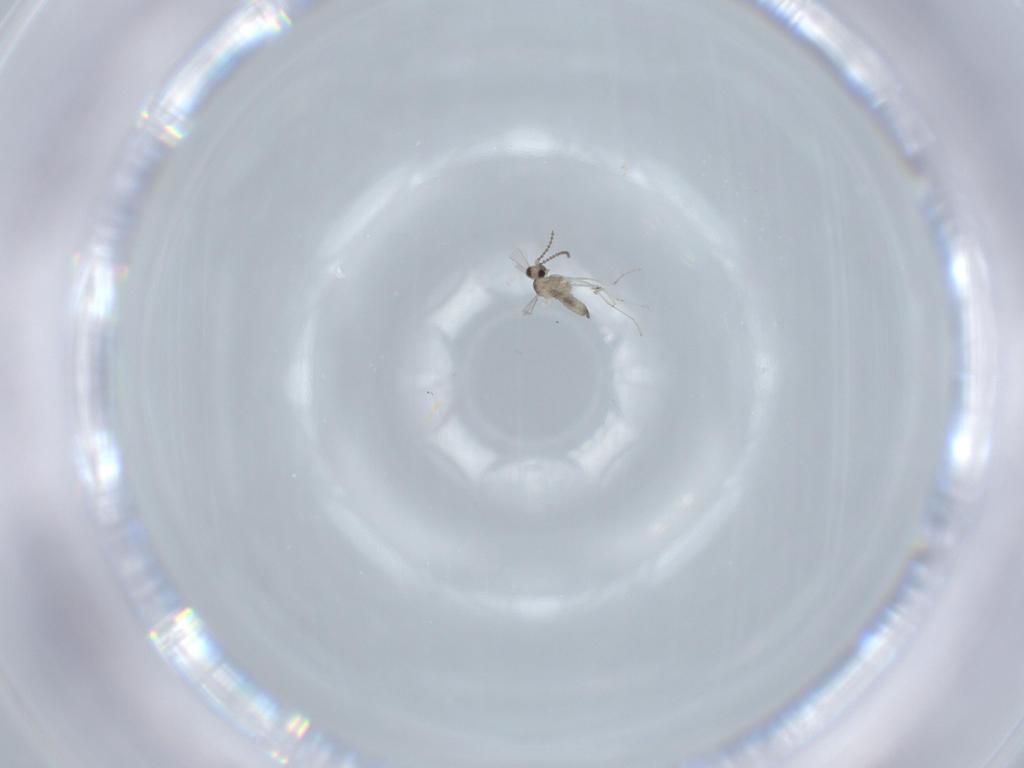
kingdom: Animalia
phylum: Arthropoda
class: Insecta
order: Diptera
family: Cecidomyiidae
